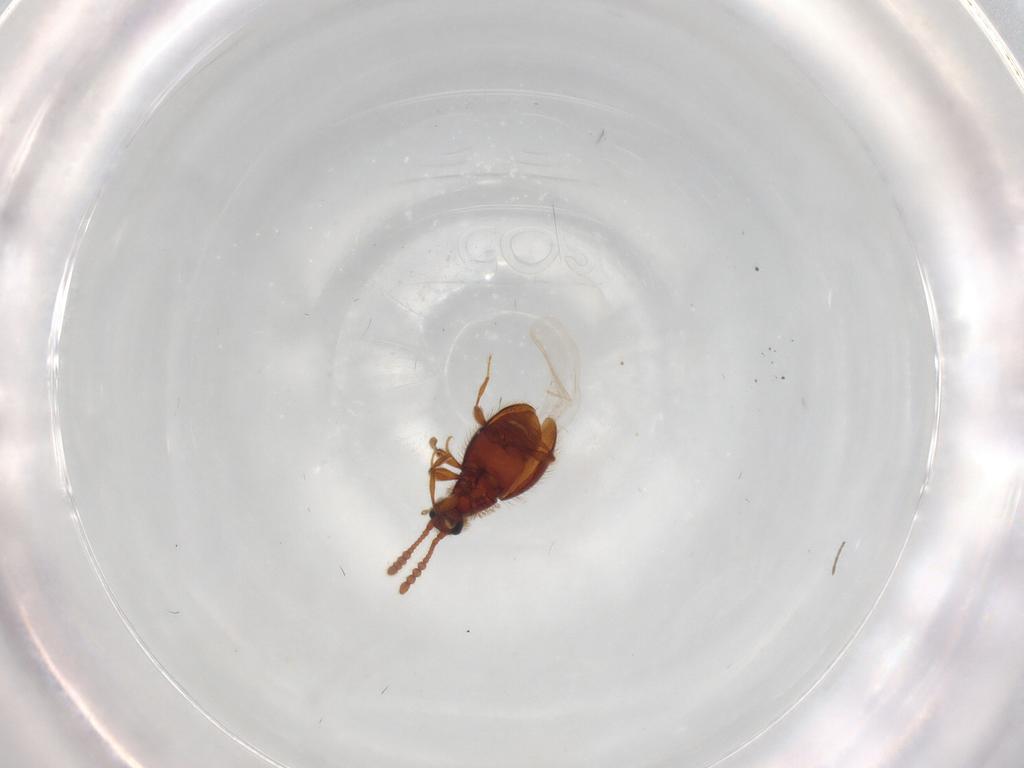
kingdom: Animalia
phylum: Arthropoda
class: Insecta
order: Coleoptera
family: Staphylinidae
